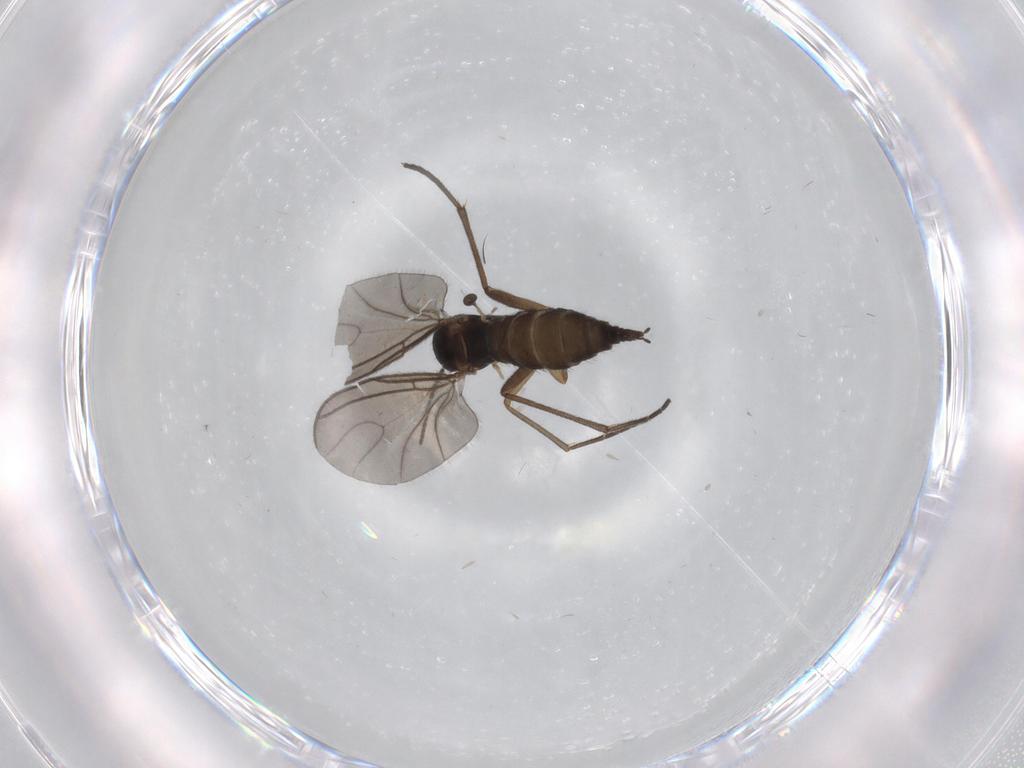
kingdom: Animalia
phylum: Arthropoda
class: Insecta
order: Diptera
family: Sciaridae
